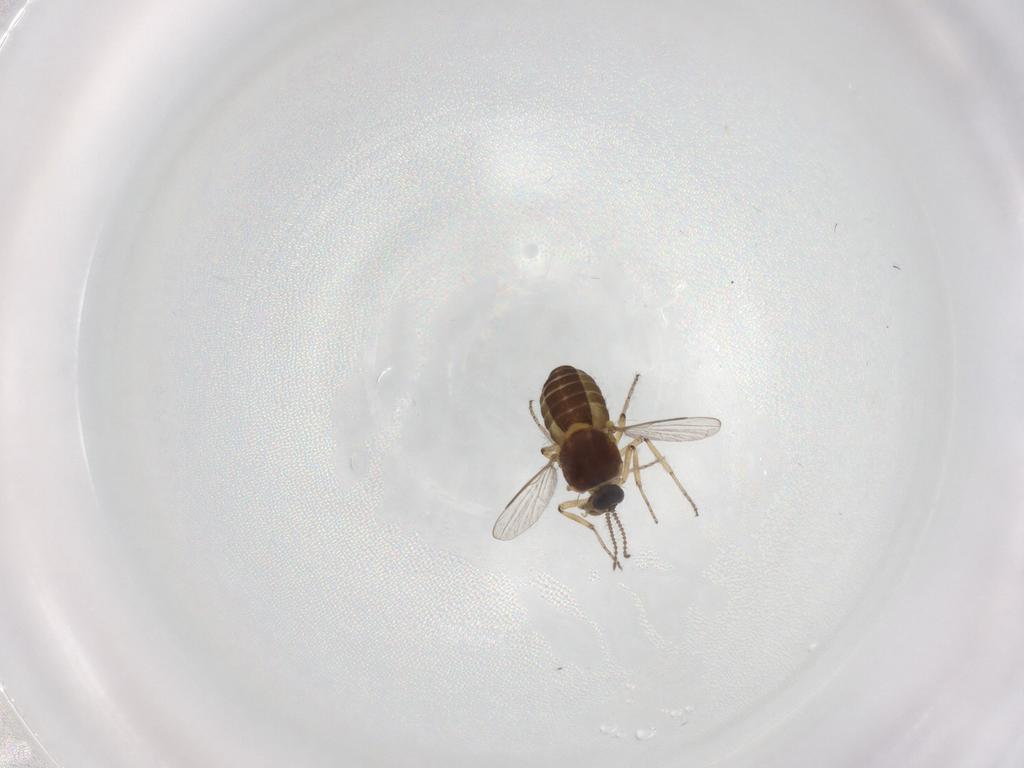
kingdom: Animalia
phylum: Arthropoda
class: Insecta
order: Diptera
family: Ceratopogonidae
